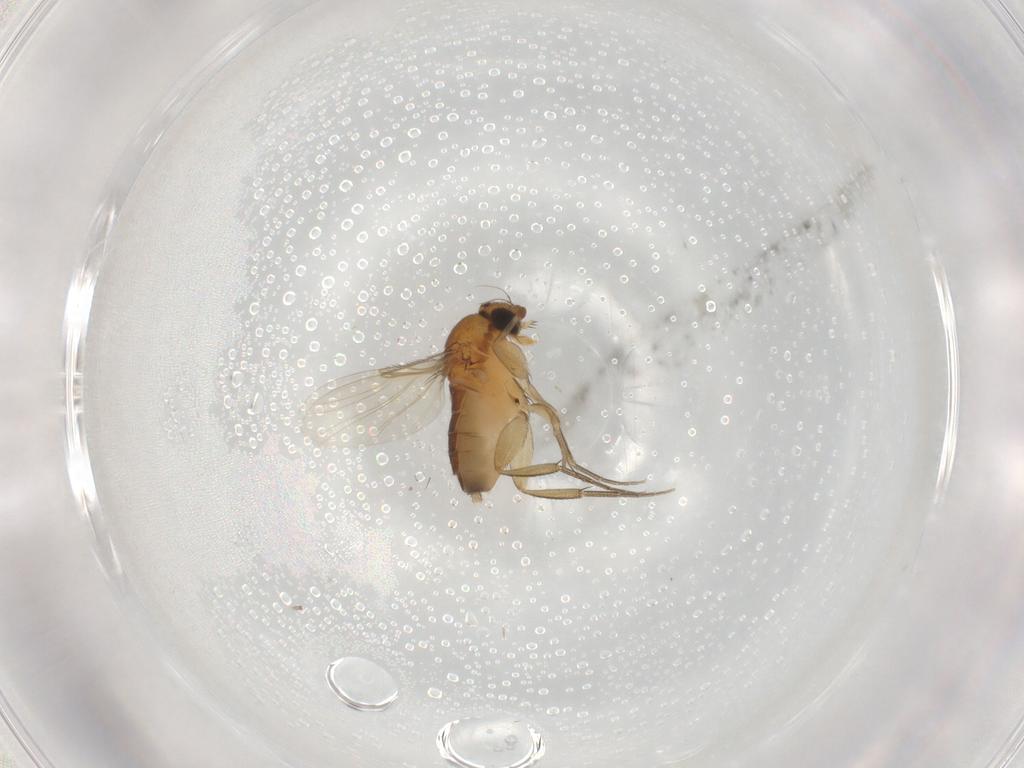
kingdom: Animalia
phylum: Arthropoda
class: Insecta
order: Diptera
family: Phoridae
